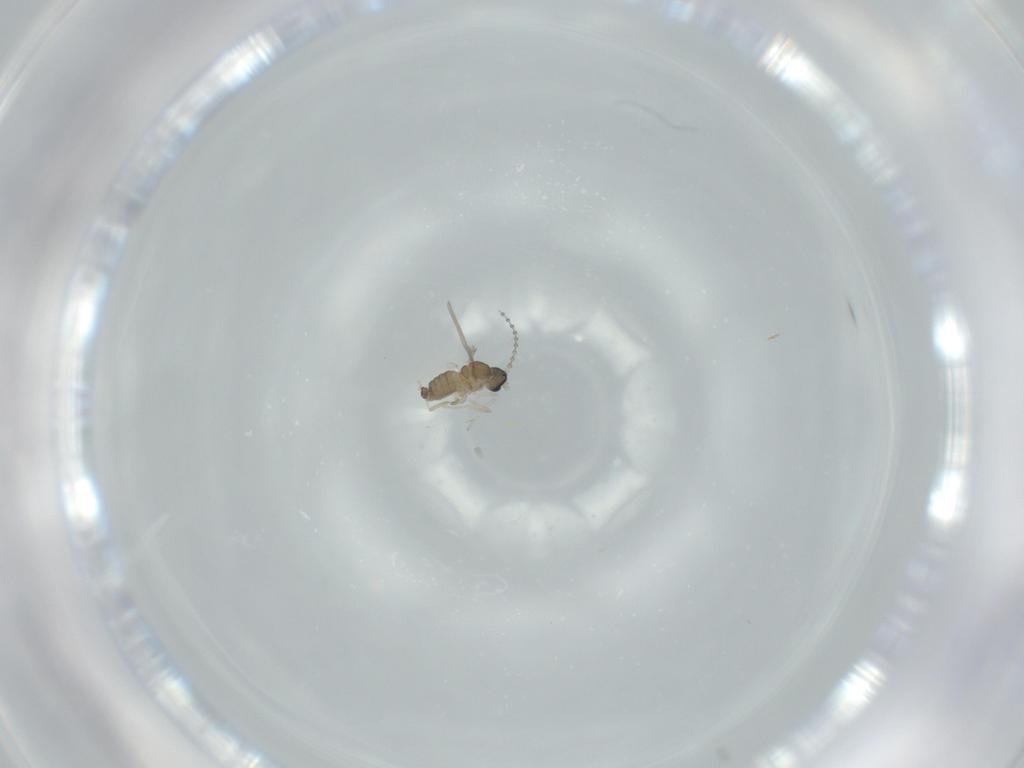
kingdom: Animalia
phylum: Arthropoda
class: Insecta
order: Diptera
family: Cecidomyiidae
